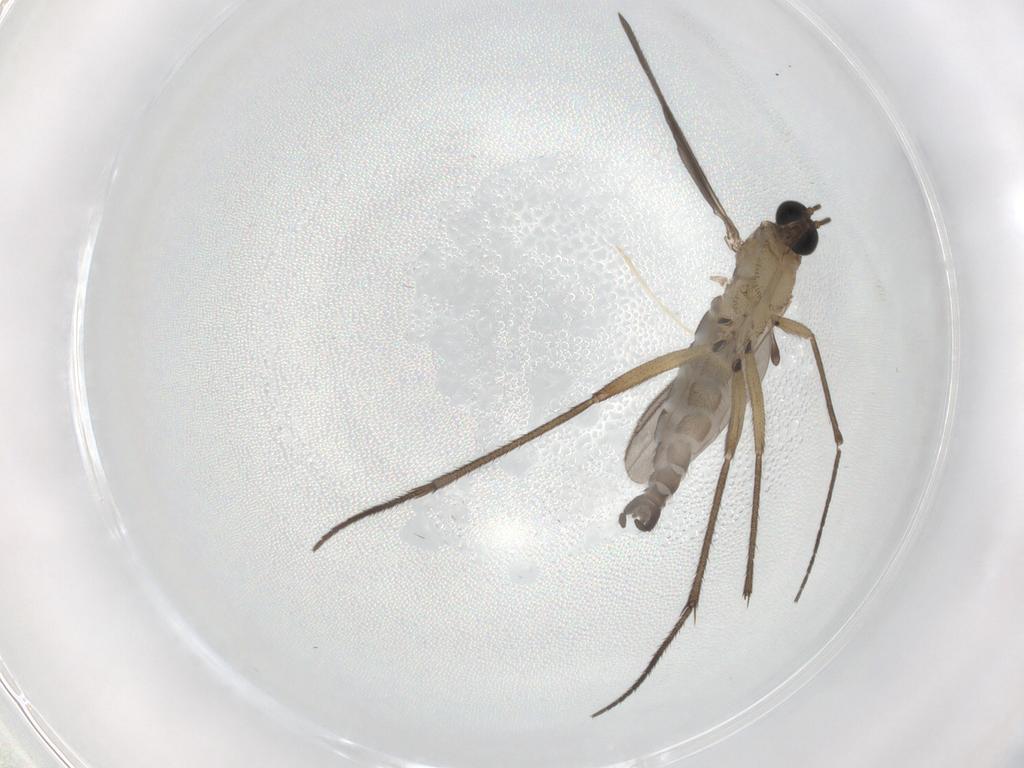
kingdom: Animalia
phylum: Arthropoda
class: Insecta
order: Diptera
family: Sciaridae
